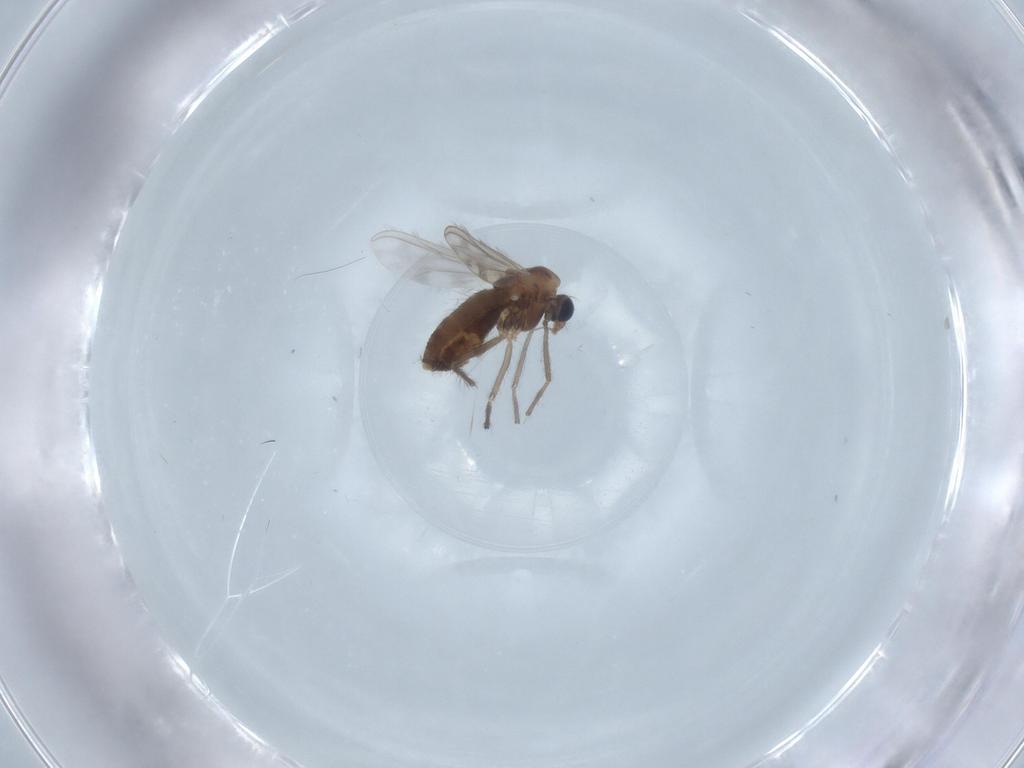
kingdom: Animalia
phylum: Arthropoda
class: Insecta
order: Diptera
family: Chironomidae
